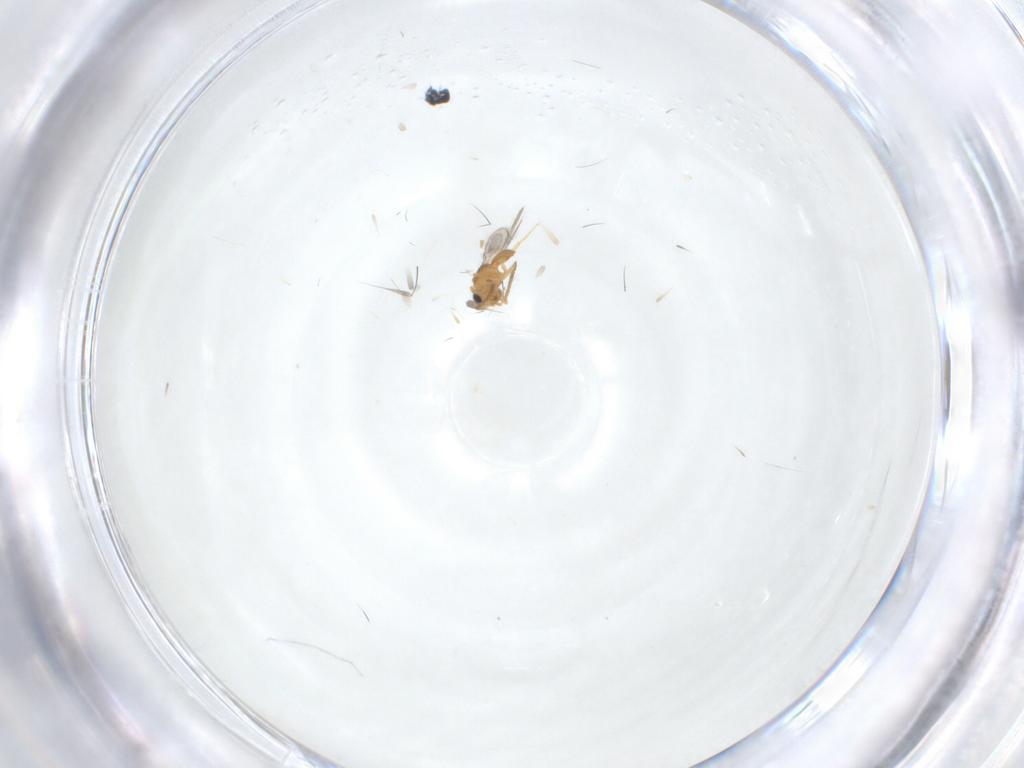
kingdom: Animalia
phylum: Arthropoda
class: Insecta
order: Hymenoptera
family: Scelionidae
